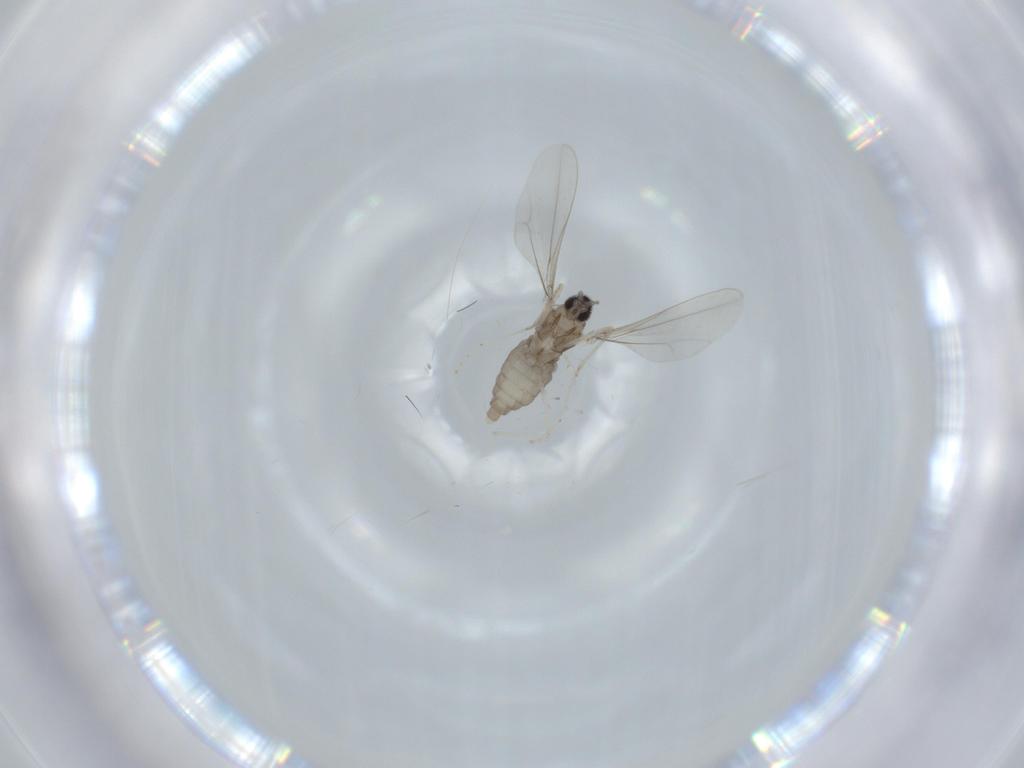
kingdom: Animalia
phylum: Arthropoda
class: Insecta
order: Diptera
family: Cecidomyiidae
